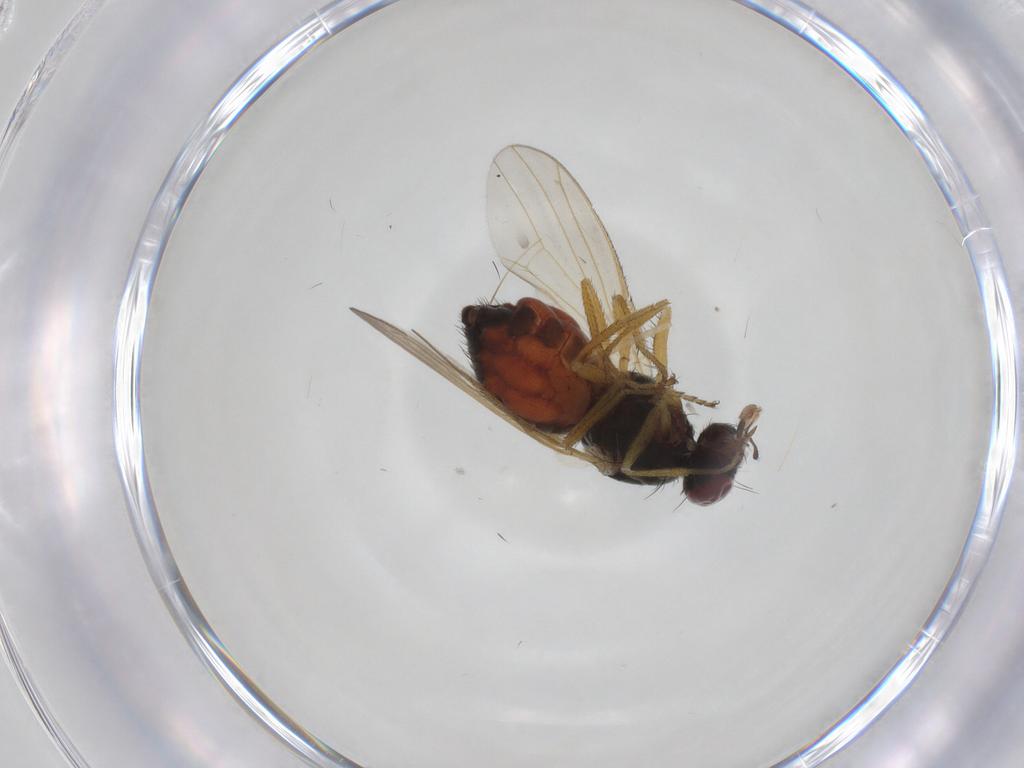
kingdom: Animalia
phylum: Arthropoda
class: Insecta
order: Diptera
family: Heleomyzidae
